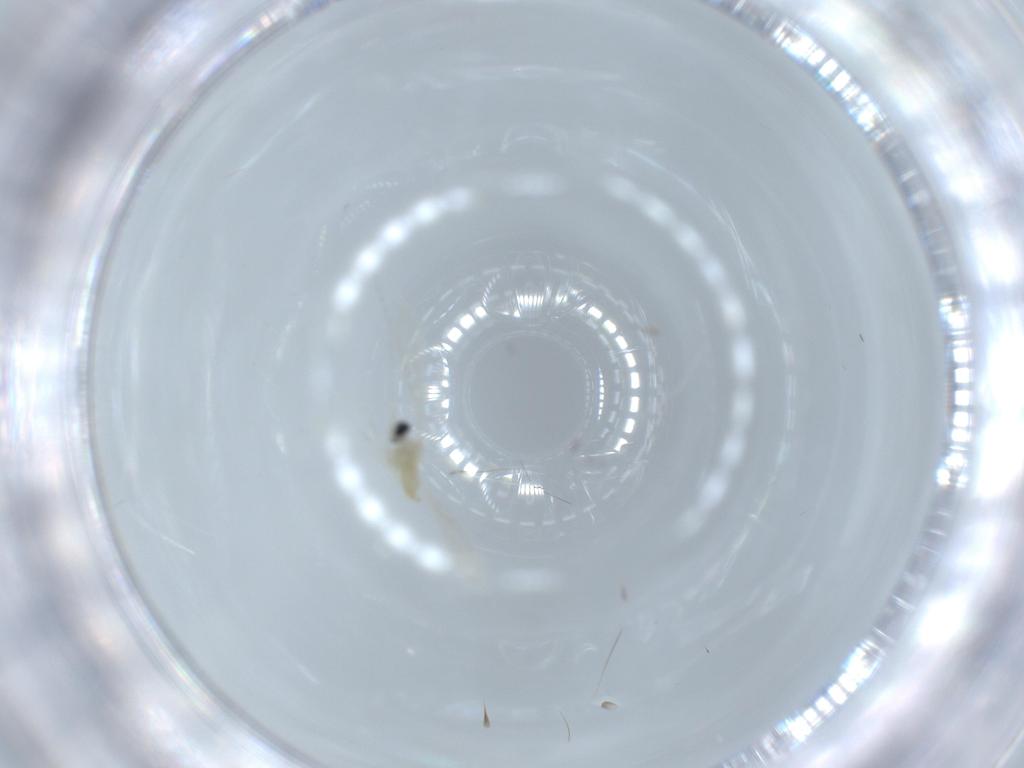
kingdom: Animalia
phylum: Arthropoda
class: Insecta
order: Diptera
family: Cecidomyiidae
